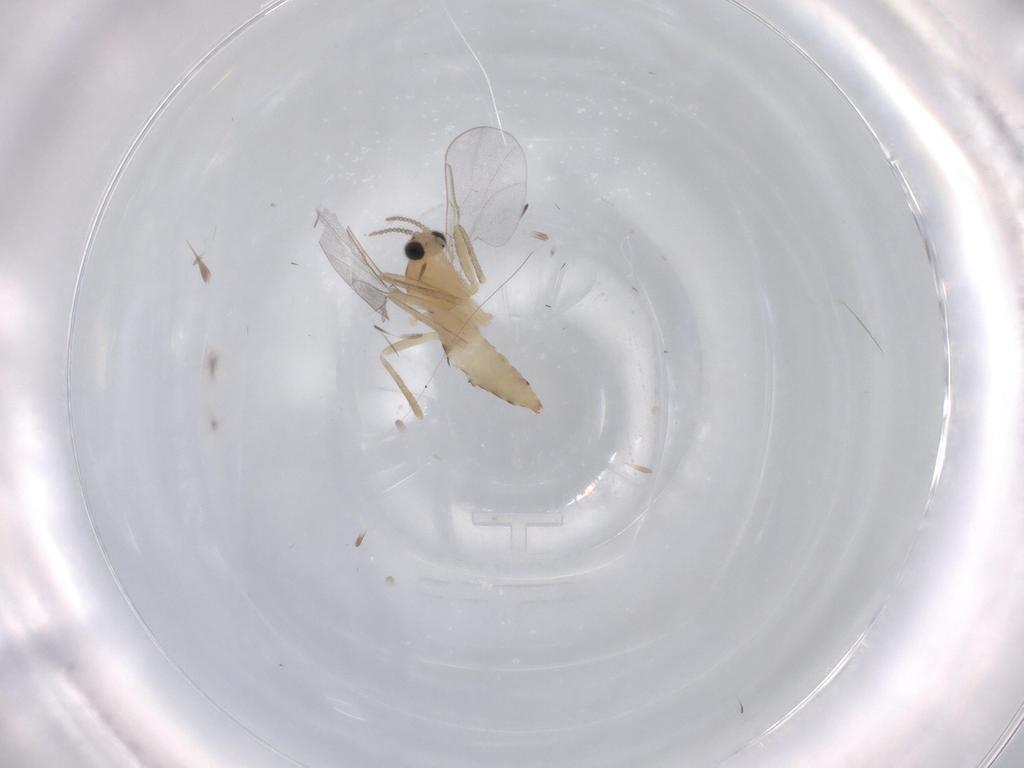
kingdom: Animalia
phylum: Arthropoda
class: Insecta
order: Diptera
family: Cecidomyiidae
